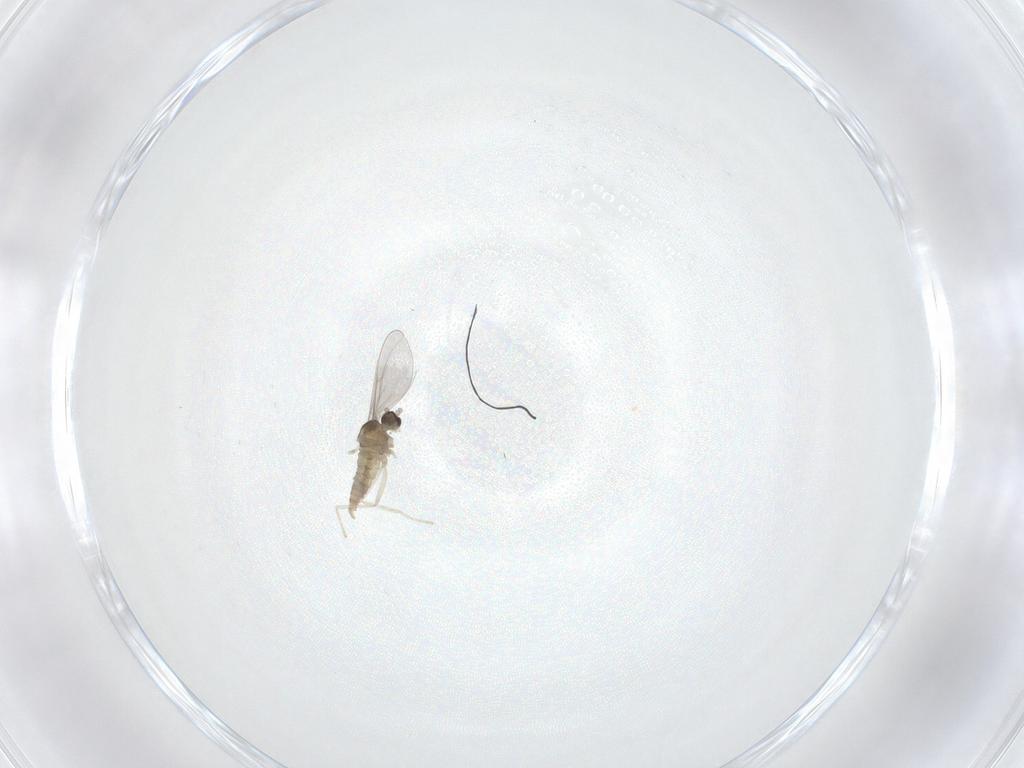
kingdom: Animalia
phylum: Arthropoda
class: Insecta
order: Diptera
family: Cecidomyiidae
